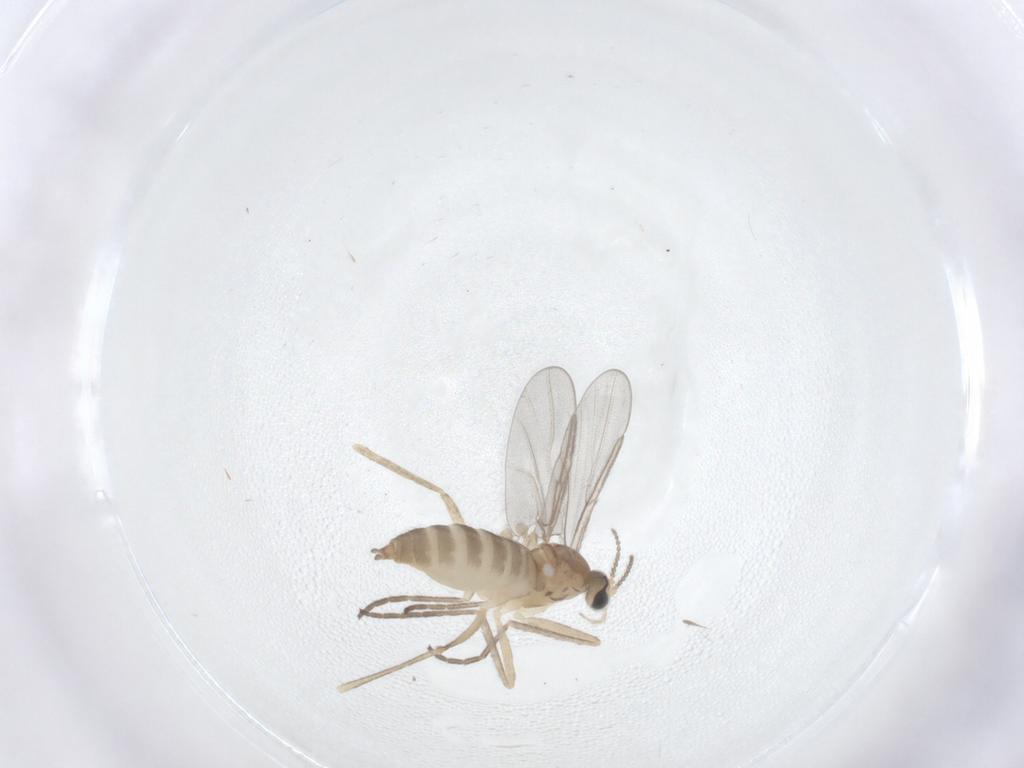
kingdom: Animalia
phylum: Arthropoda
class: Insecta
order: Diptera
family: Cecidomyiidae
